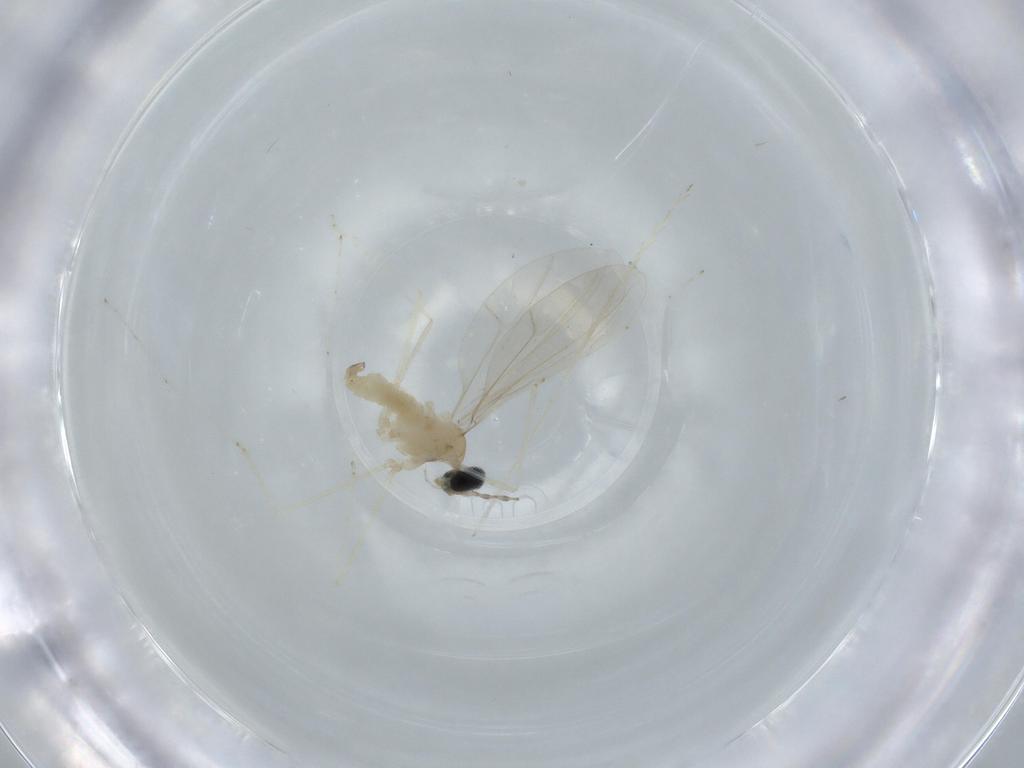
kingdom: Animalia
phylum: Arthropoda
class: Insecta
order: Diptera
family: Cecidomyiidae
